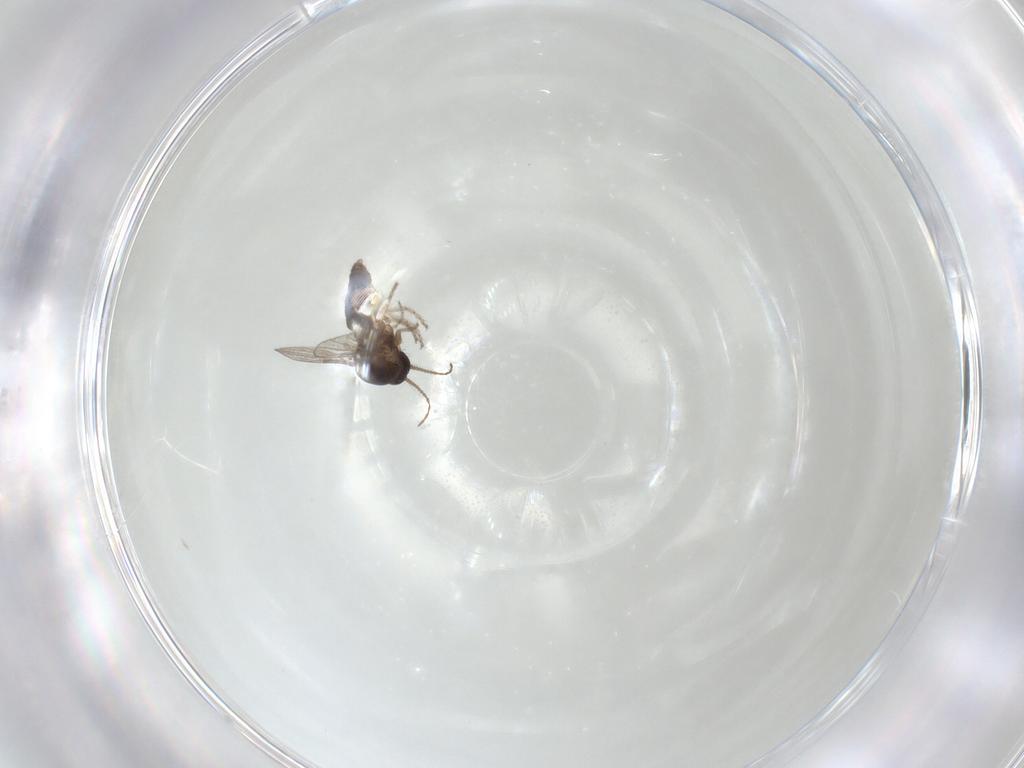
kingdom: Animalia
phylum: Arthropoda
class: Insecta
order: Diptera
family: Ceratopogonidae
